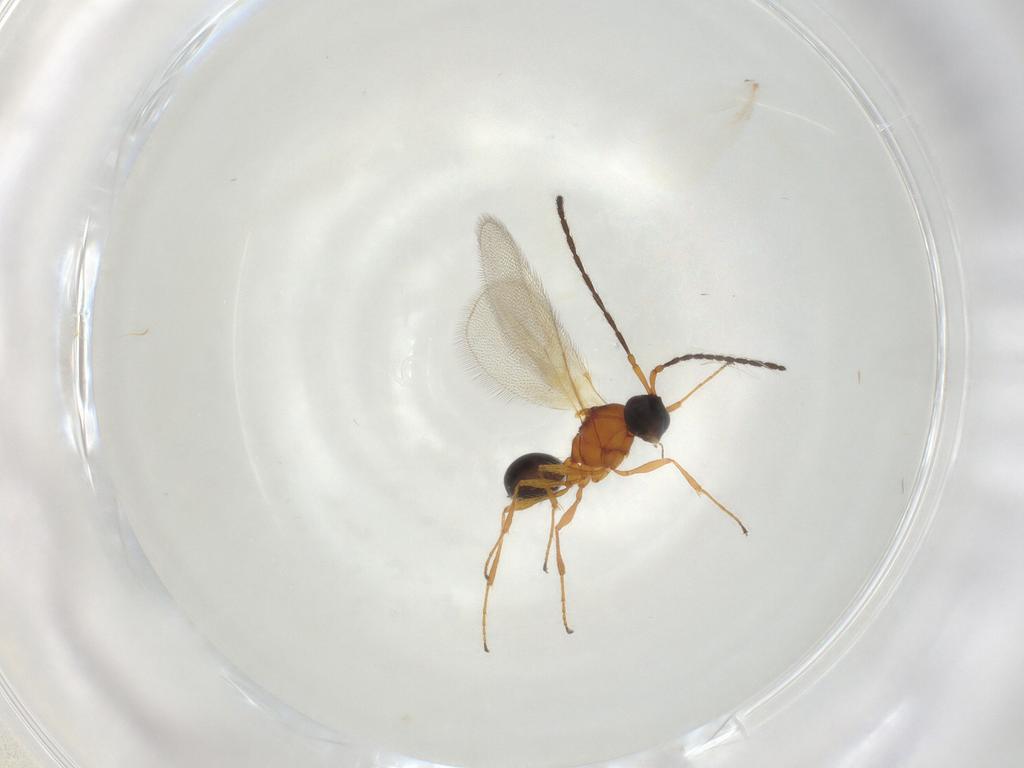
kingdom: Animalia
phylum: Arthropoda
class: Insecta
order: Hymenoptera
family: Diapriidae
